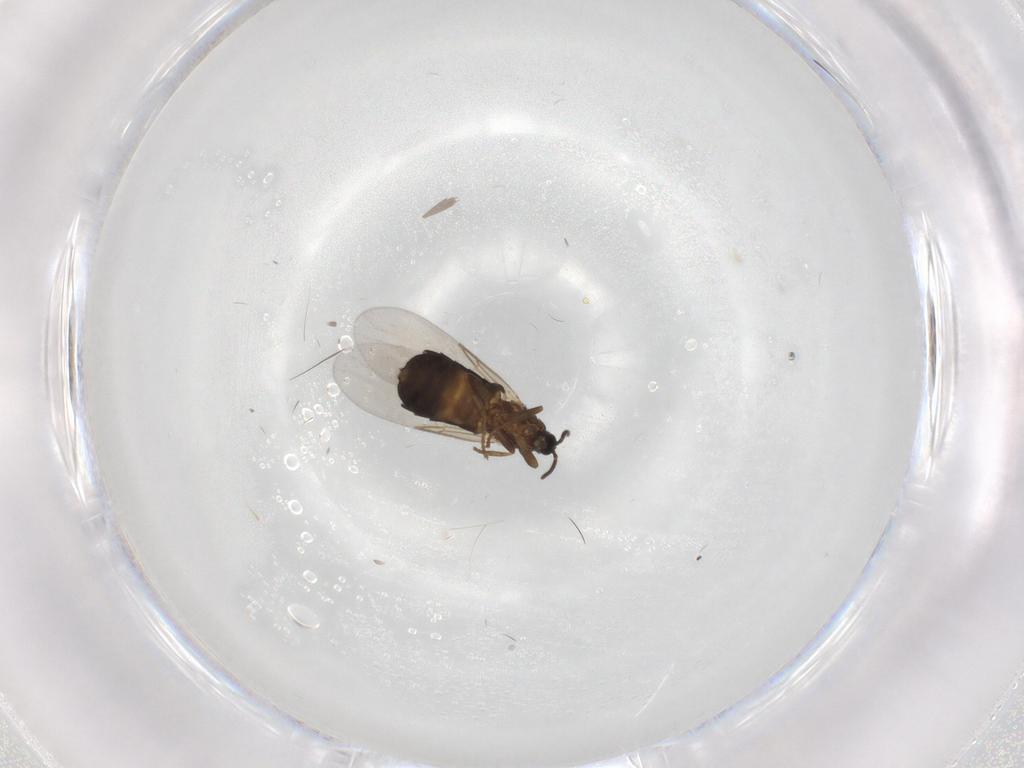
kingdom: Animalia
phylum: Arthropoda
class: Insecta
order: Diptera
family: Scatopsidae
